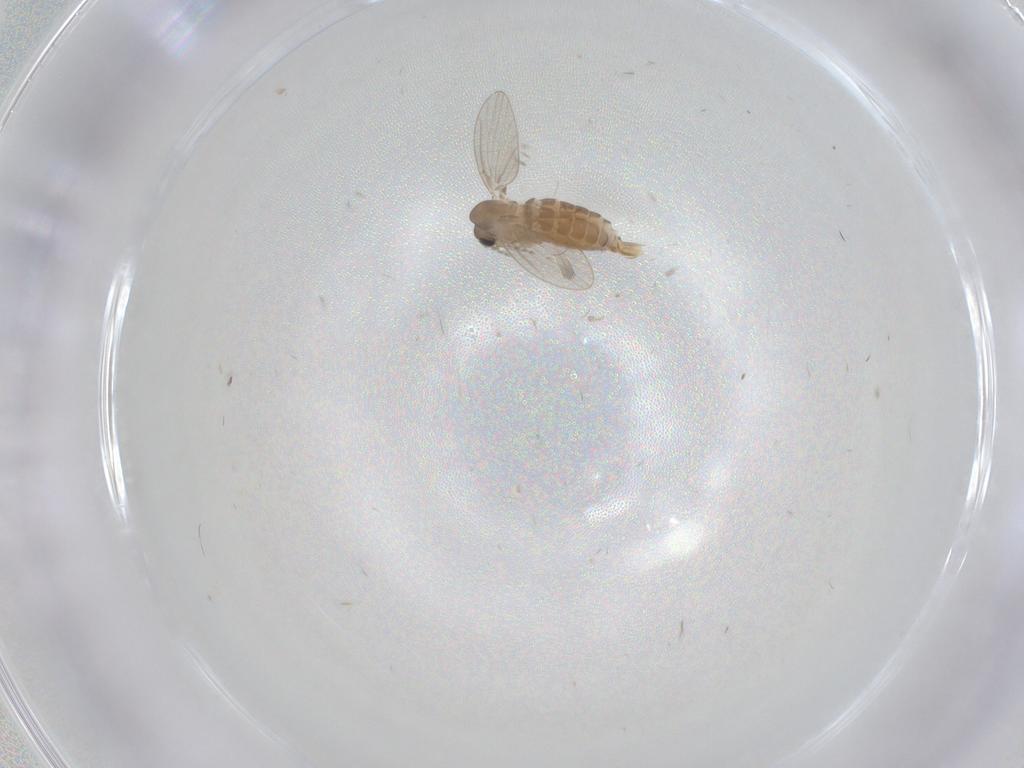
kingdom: Animalia
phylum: Arthropoda
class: Insecta
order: Diptera
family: Psychodidae
